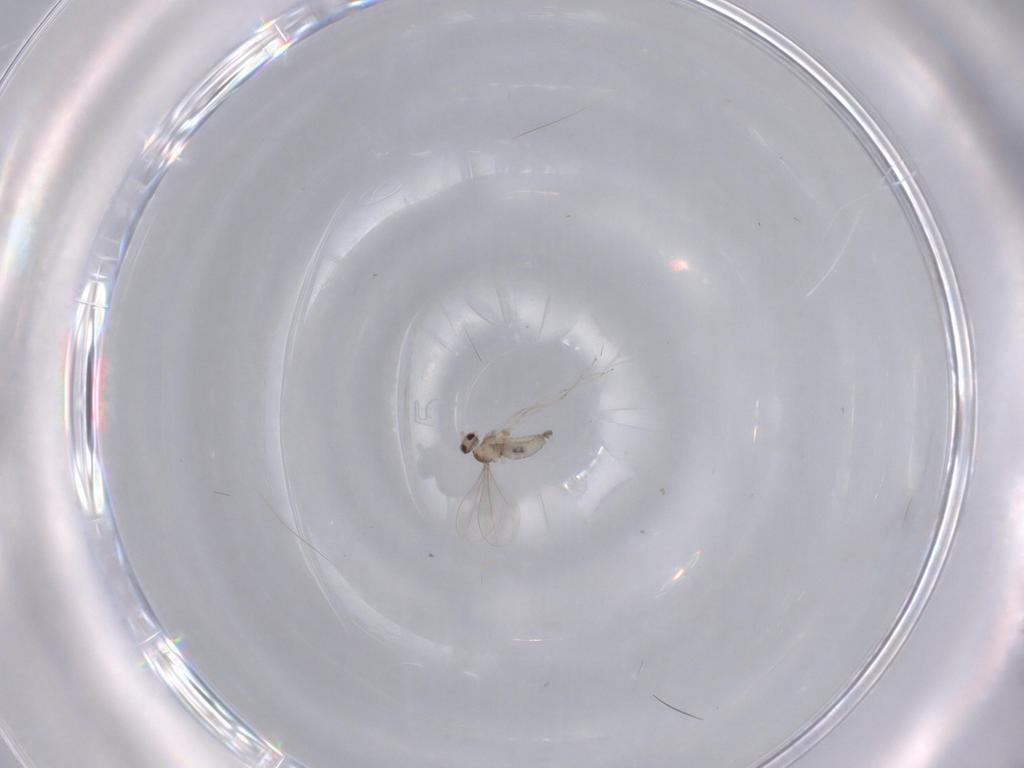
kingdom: Animalia
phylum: Arthropoda
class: Insecta
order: Diptera
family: Cecidomyiidae
